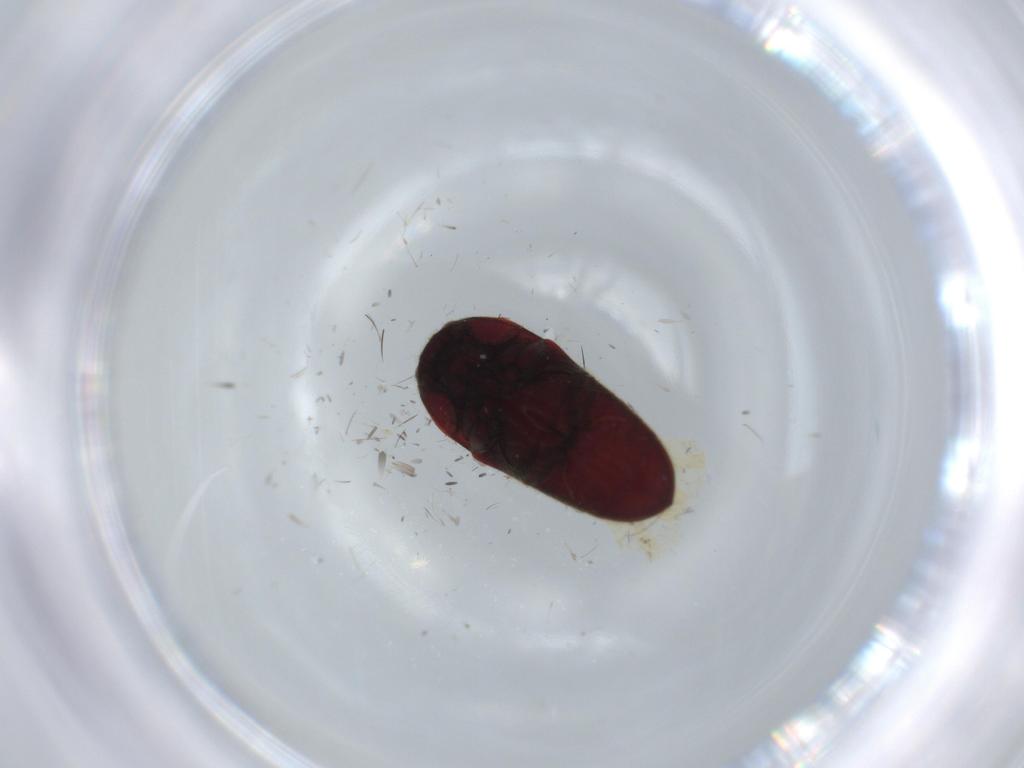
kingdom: Animalia
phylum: Arthropoda
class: Insecta
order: Coleoptera
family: Throscidae
